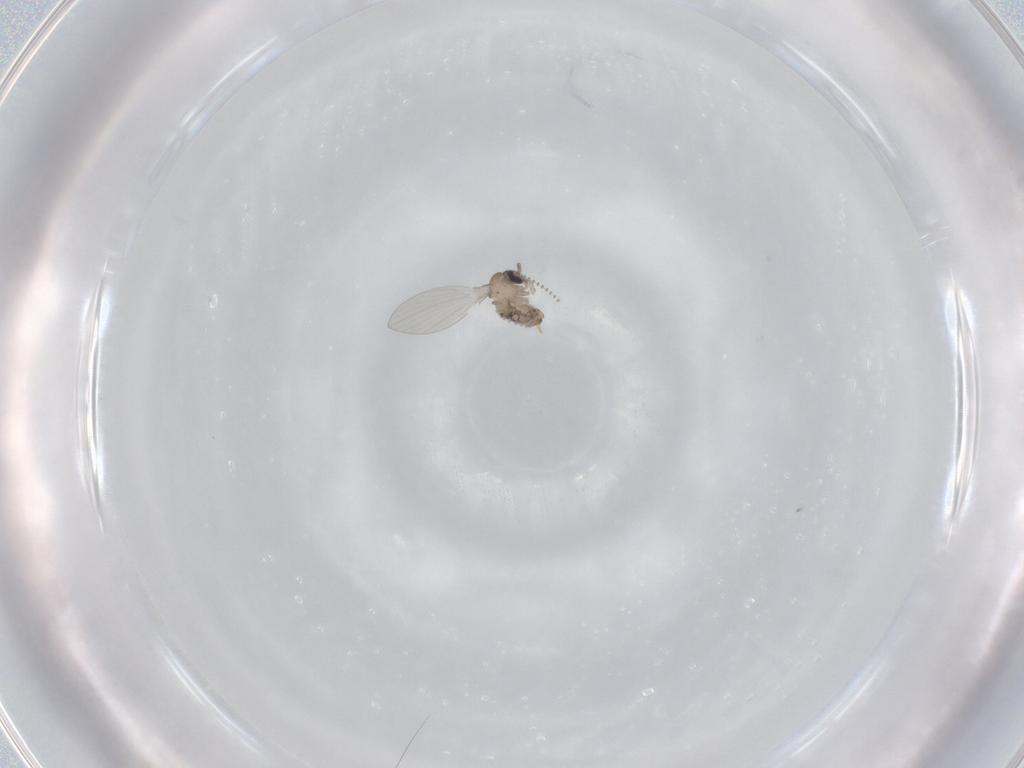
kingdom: Animalia
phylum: Arthropoda
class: Insecta
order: Diptera
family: Psychodidae
